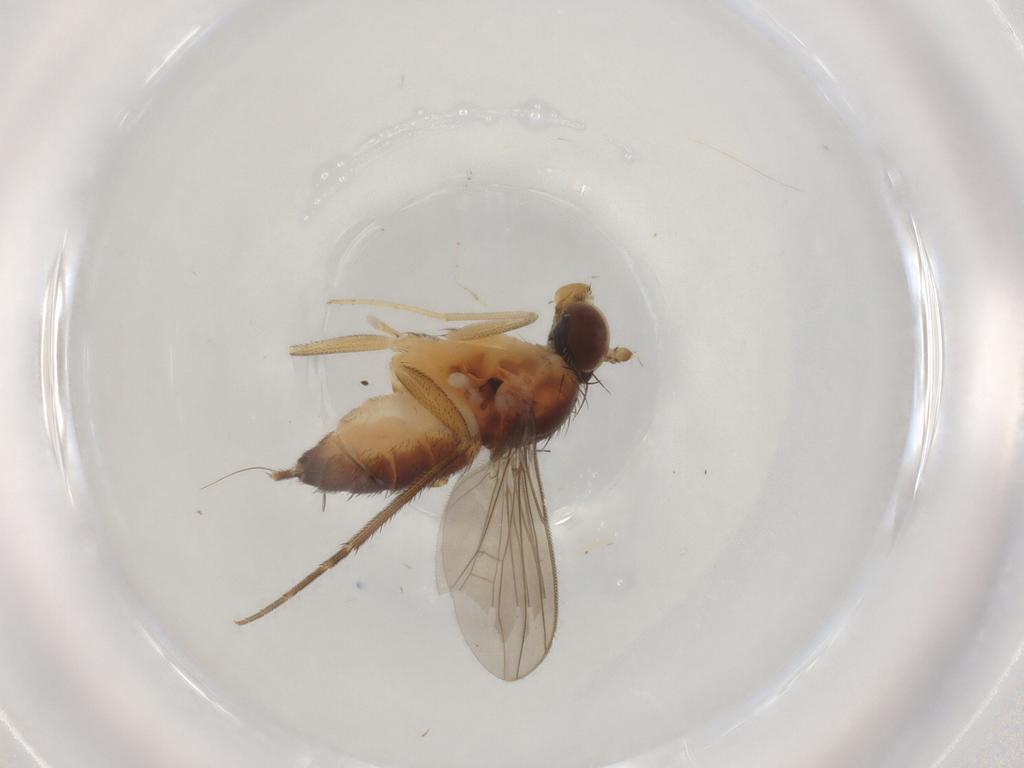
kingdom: Animalia
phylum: Arthropoda
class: Insecta
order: Diptera
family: Dolichopodidae
